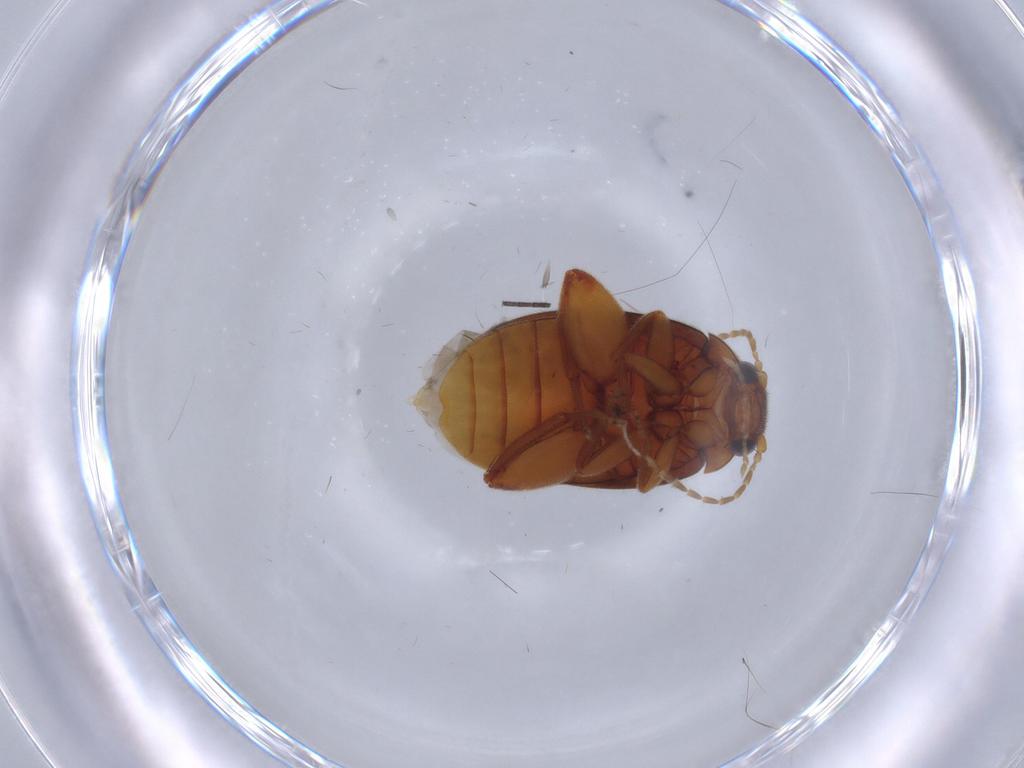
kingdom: Animalia
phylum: Arthropoda
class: Insecta
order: Coleoptera
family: Scirtidae
